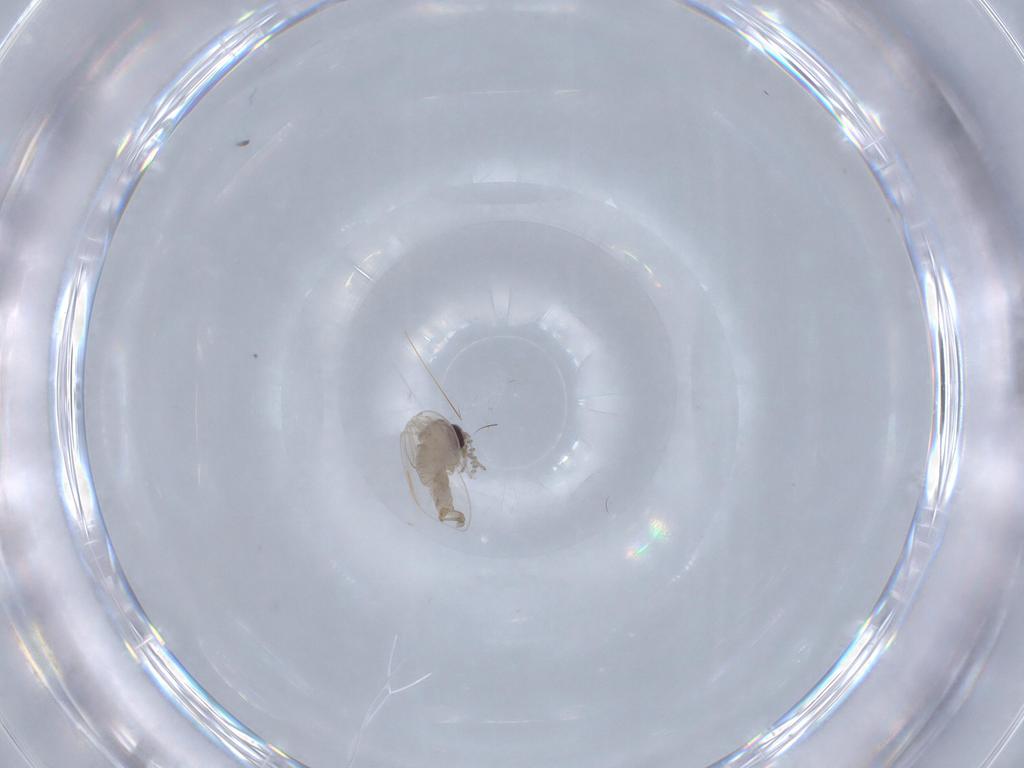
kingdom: Animalia
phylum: Arthropoda
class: Insecta
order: Diptera
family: Psychodidae
